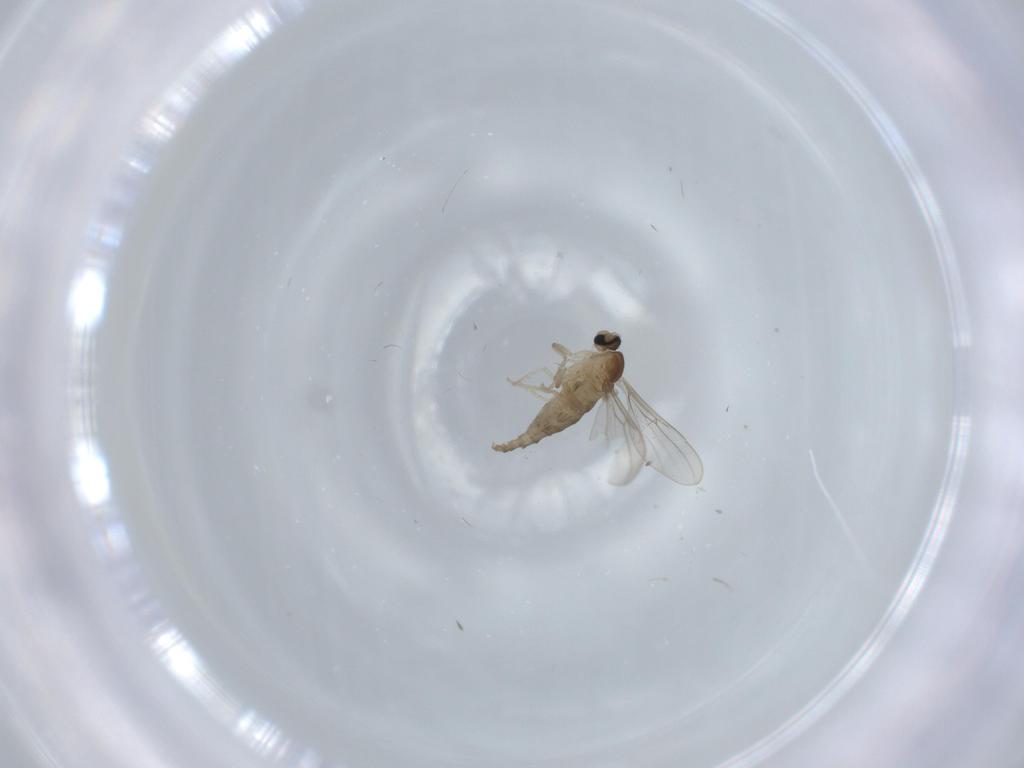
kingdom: Animalia
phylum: Arthropoda
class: Insecta
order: Diptera
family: Cecidomyiidae
